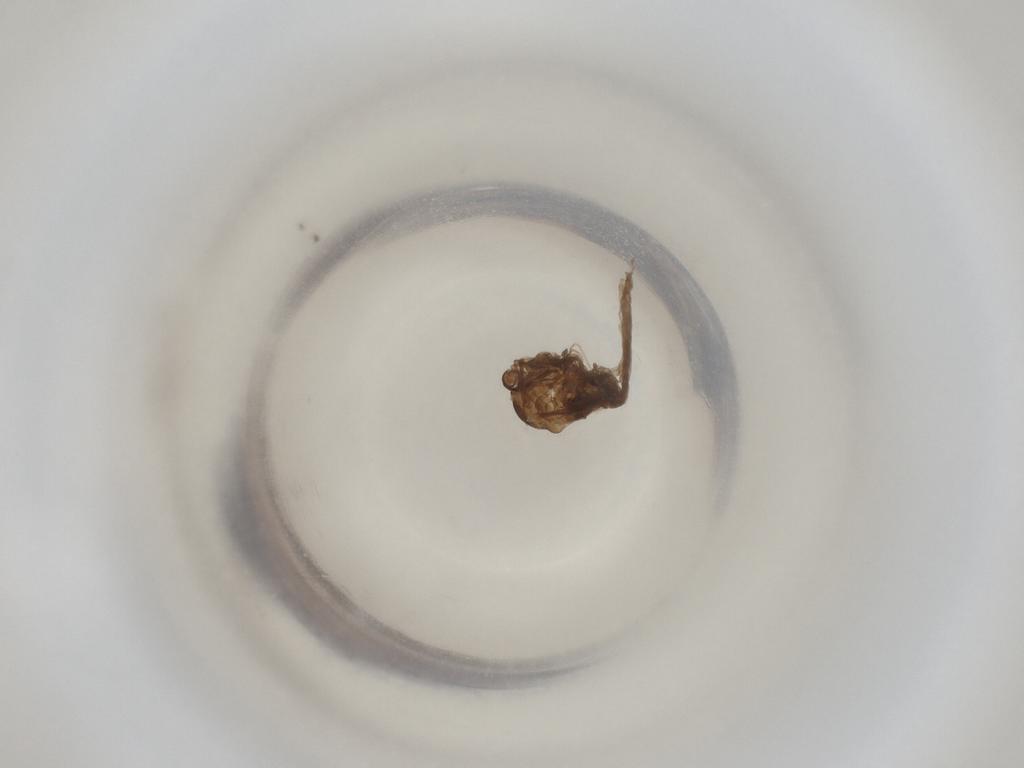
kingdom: Animalia
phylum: Arthropoda
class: Insecta
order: Diptera
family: Cecidomyiidae
